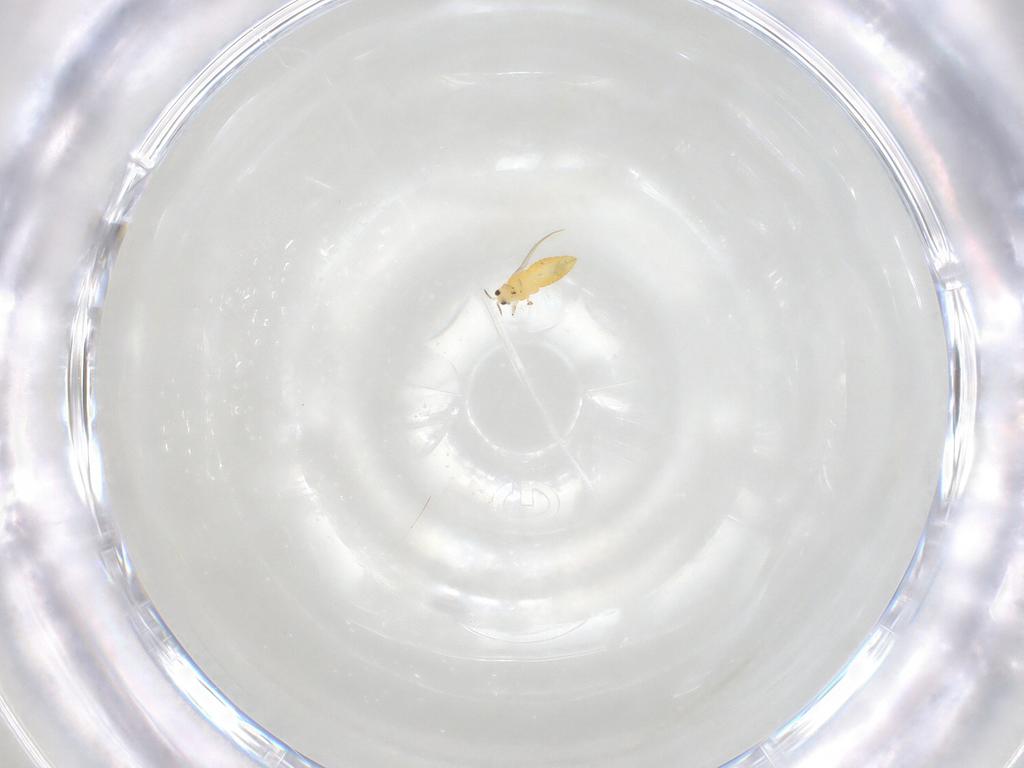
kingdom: Animalia
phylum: Arthropoda
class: Insecta
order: Thysanoptera
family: Thripidae
